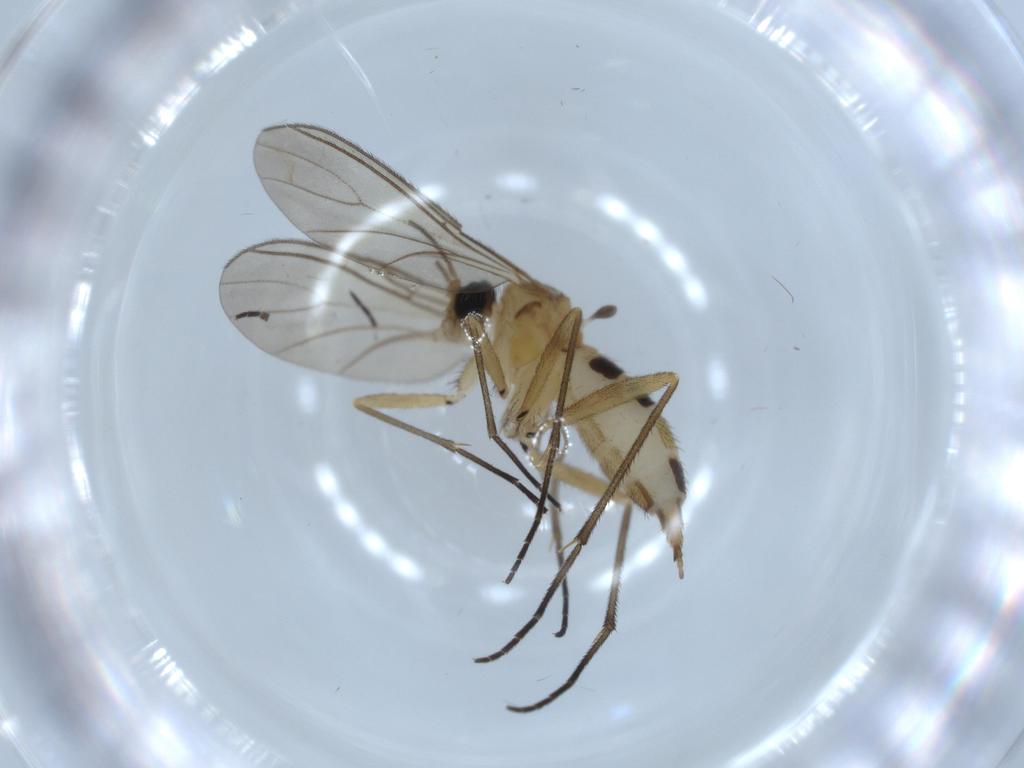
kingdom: Animalia
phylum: Arthropoda
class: Insecta
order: Diptera
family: Sciaridae
